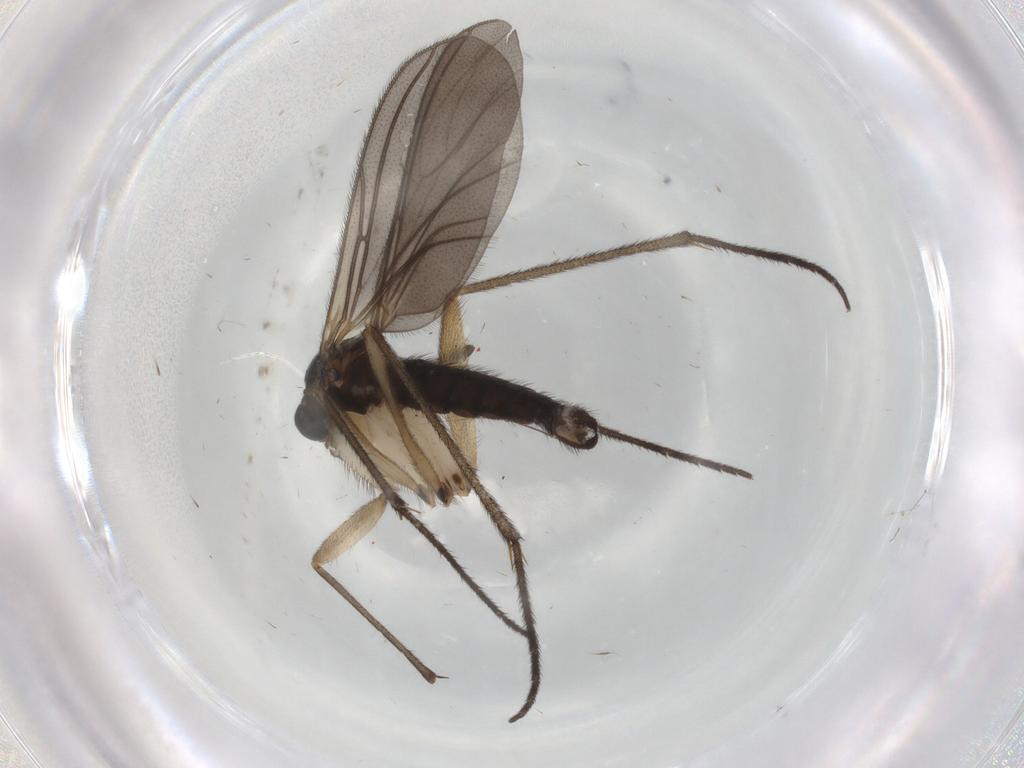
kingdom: Animalia
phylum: Arthropoda
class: Insecta
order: Diptera
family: Sciaridae
